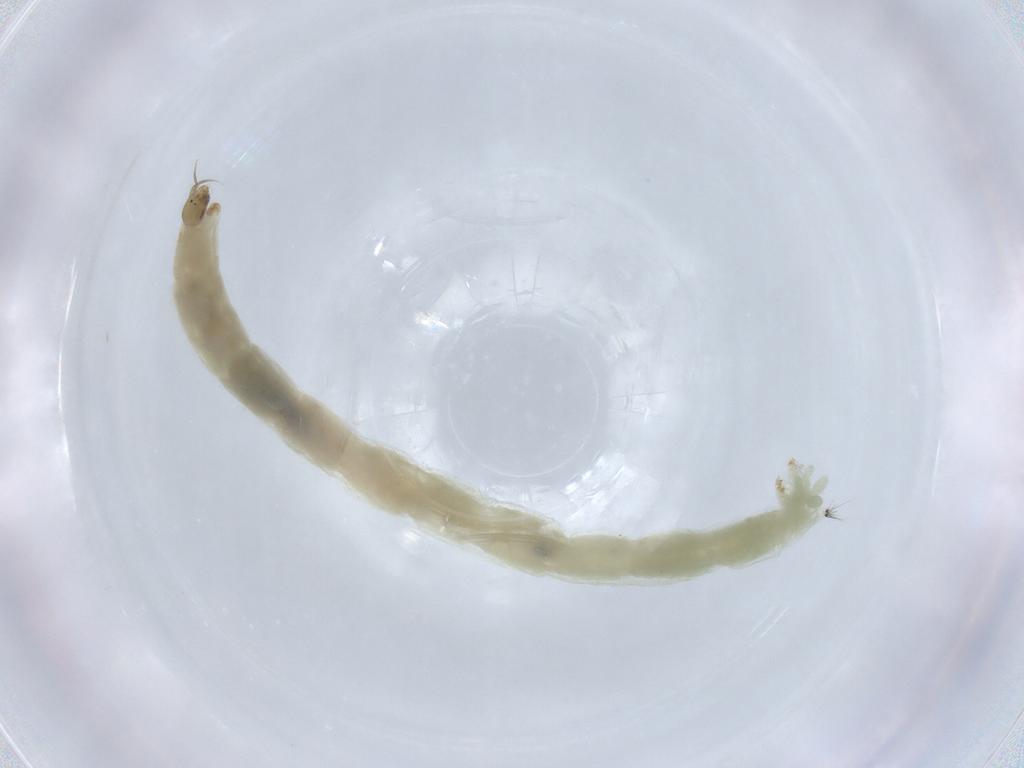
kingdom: Animalia
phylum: Arthropoda
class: Insecta
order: Diptera
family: Chironomidae
